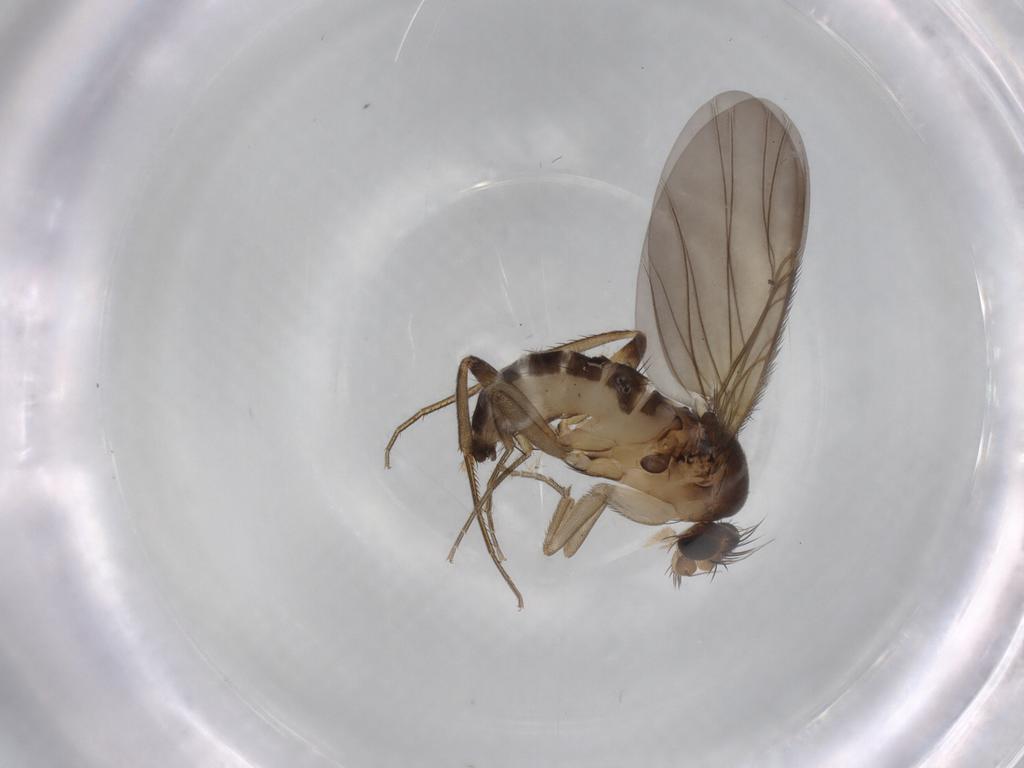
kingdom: Animalia
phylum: Arthropoda
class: Insecta
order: Diptera
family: Phoridae
